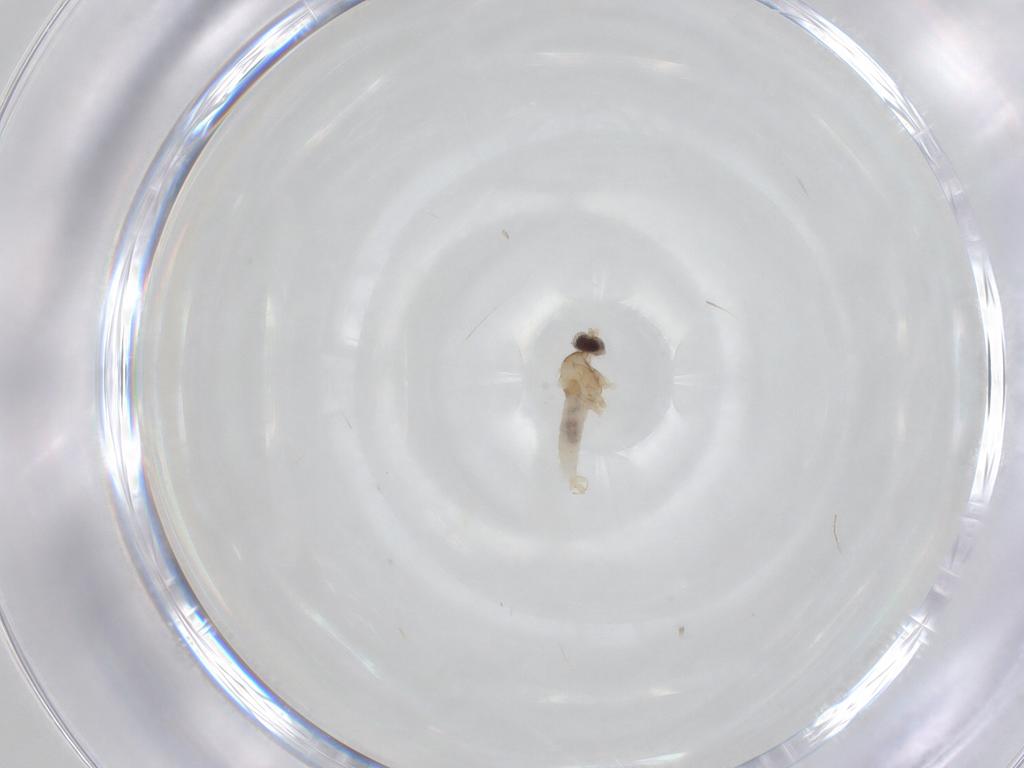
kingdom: Animalia
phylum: Arthropoda
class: Insecta
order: Diptera
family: Cecidomyiidae
